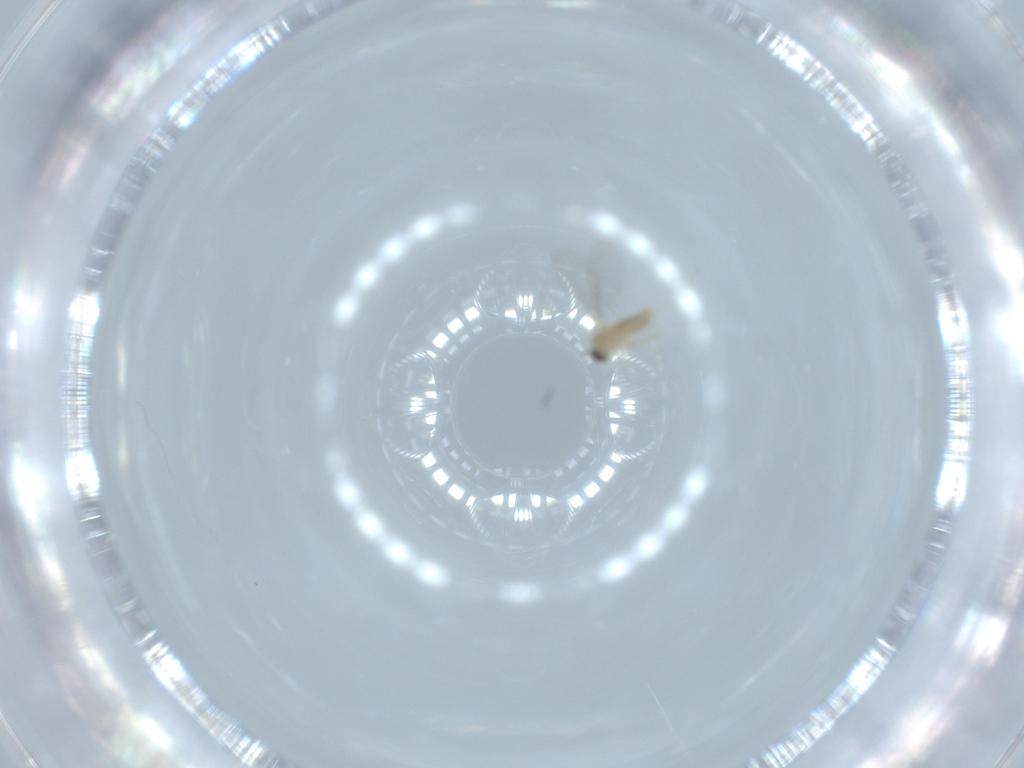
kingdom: Animalia
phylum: Arthropoda
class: Insecta
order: Diptera
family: Cecidomyiidae
